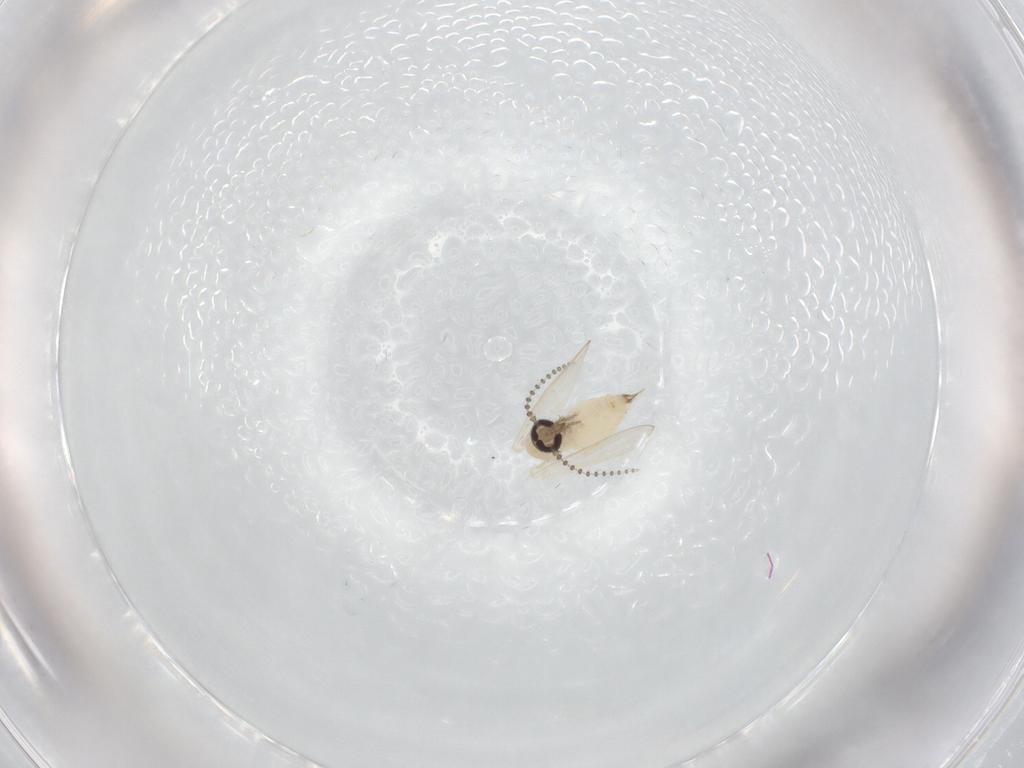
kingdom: Animalia
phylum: Arthropoda
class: Insecta
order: Diptera
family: Psychodidae
